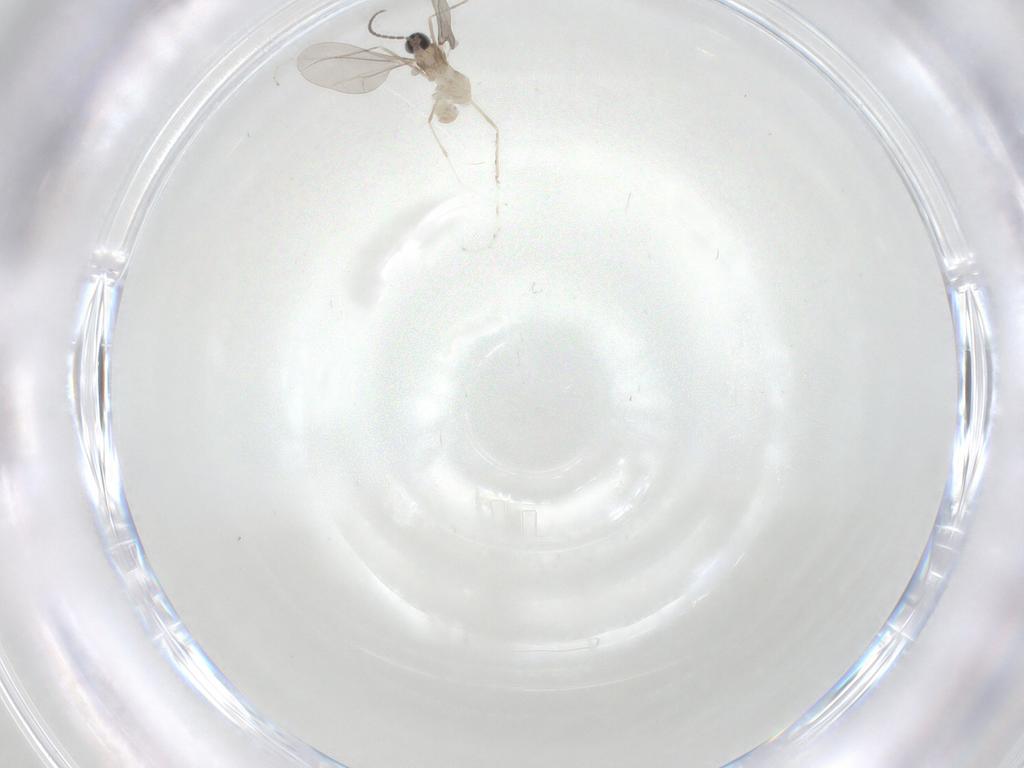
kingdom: Animalia
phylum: Arthropoda
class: Insecta
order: Diptera
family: Cecidomyiidae
